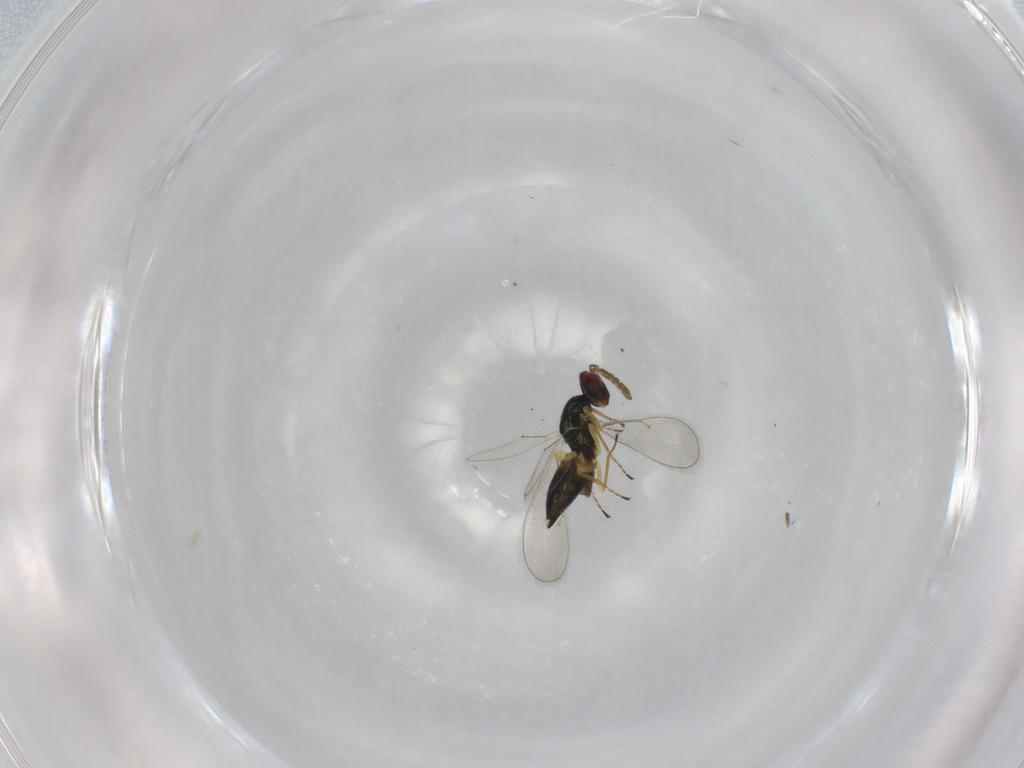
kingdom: Animalia
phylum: Arthropoda
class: Insecta
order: Hymenoptera
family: Eulophidae
